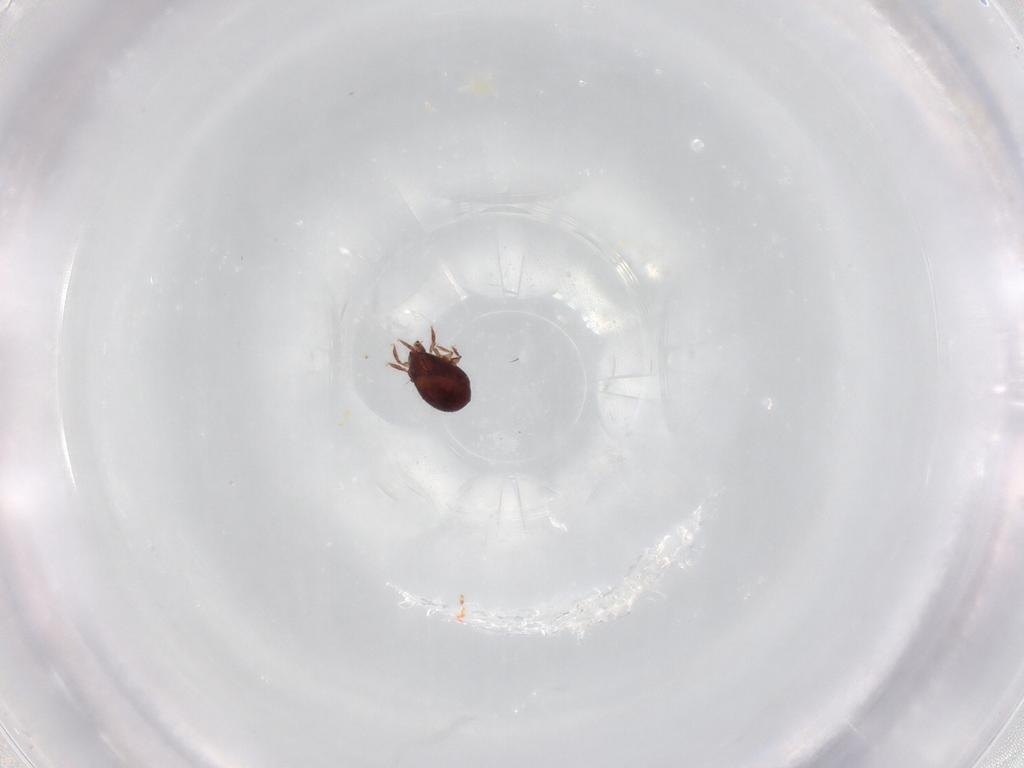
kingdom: Animalia
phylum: Arthropoda
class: Arachnida
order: Sarcoptiformes
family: Humerobatidae
